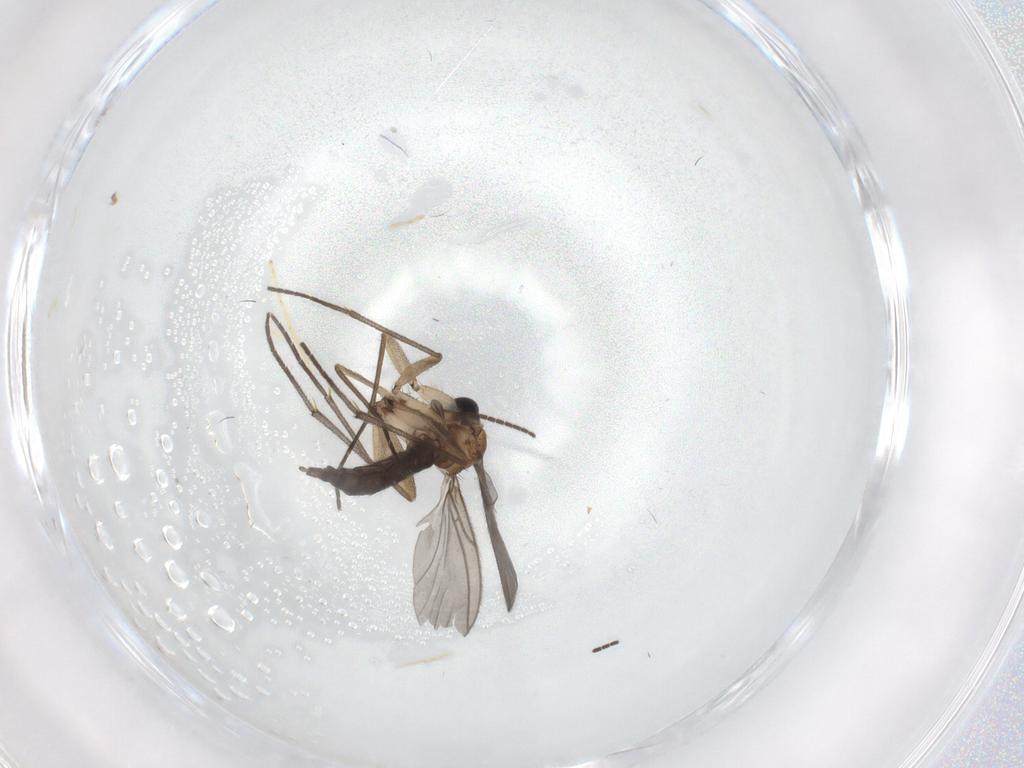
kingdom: Animalia
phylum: Arthropoda
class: Insecta
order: Diptera
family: Sciaridae
